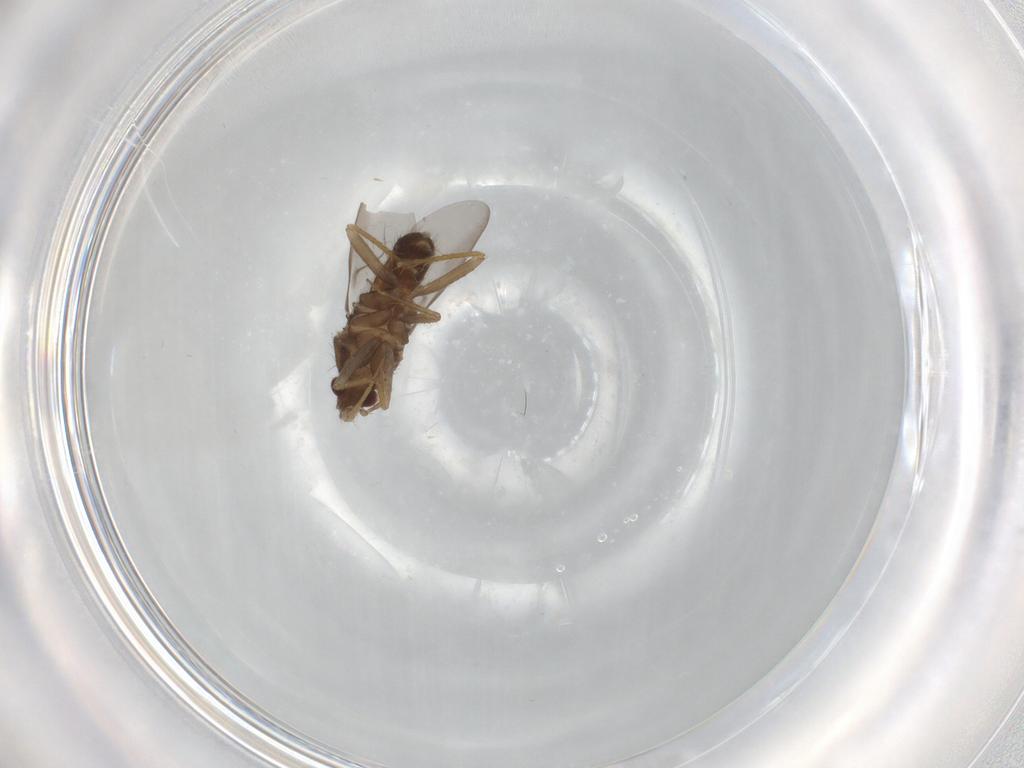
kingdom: Animalia
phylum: Arthropoda
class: Insecta
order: Hemiptera
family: Ceratocombidae
